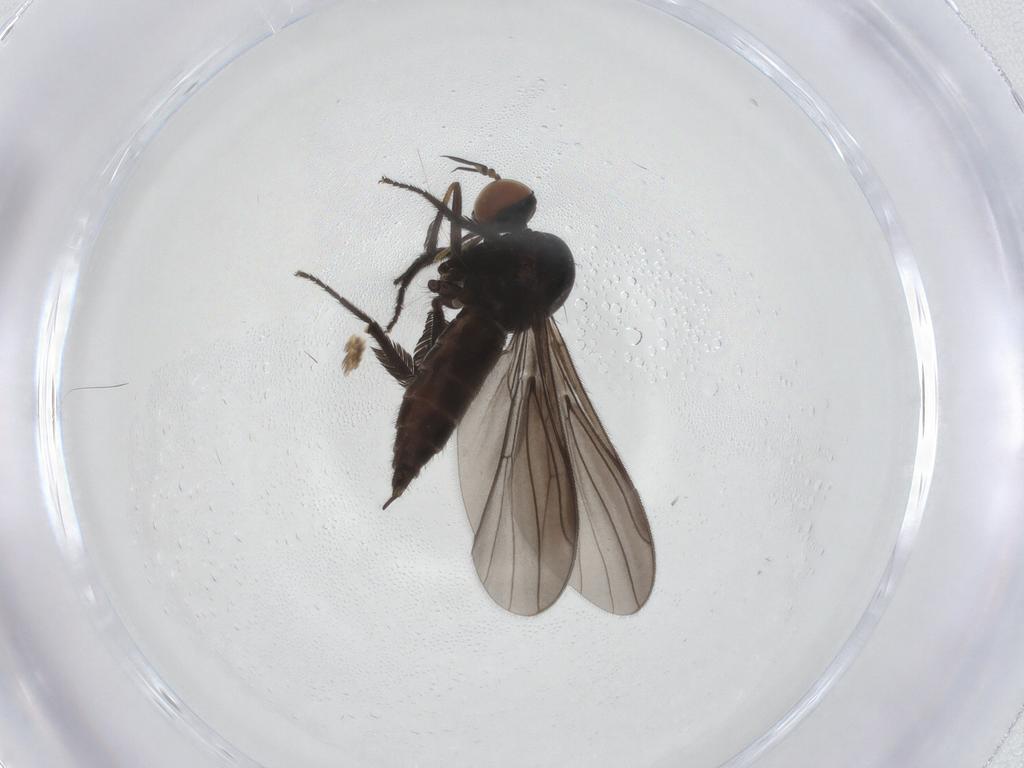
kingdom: Animalia
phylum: Arthropoda
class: Insecta
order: Diptera
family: Empididae
